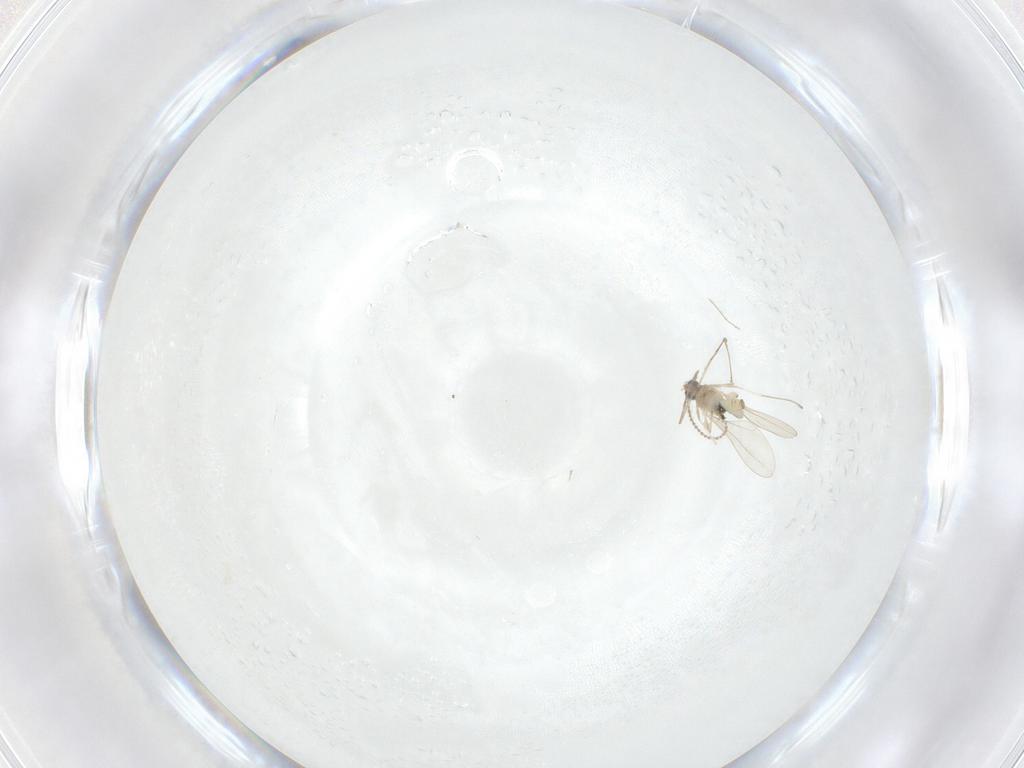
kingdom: Animalia
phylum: Arthropoda
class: Insecta
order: Diptera
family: Cecidomyiidae
